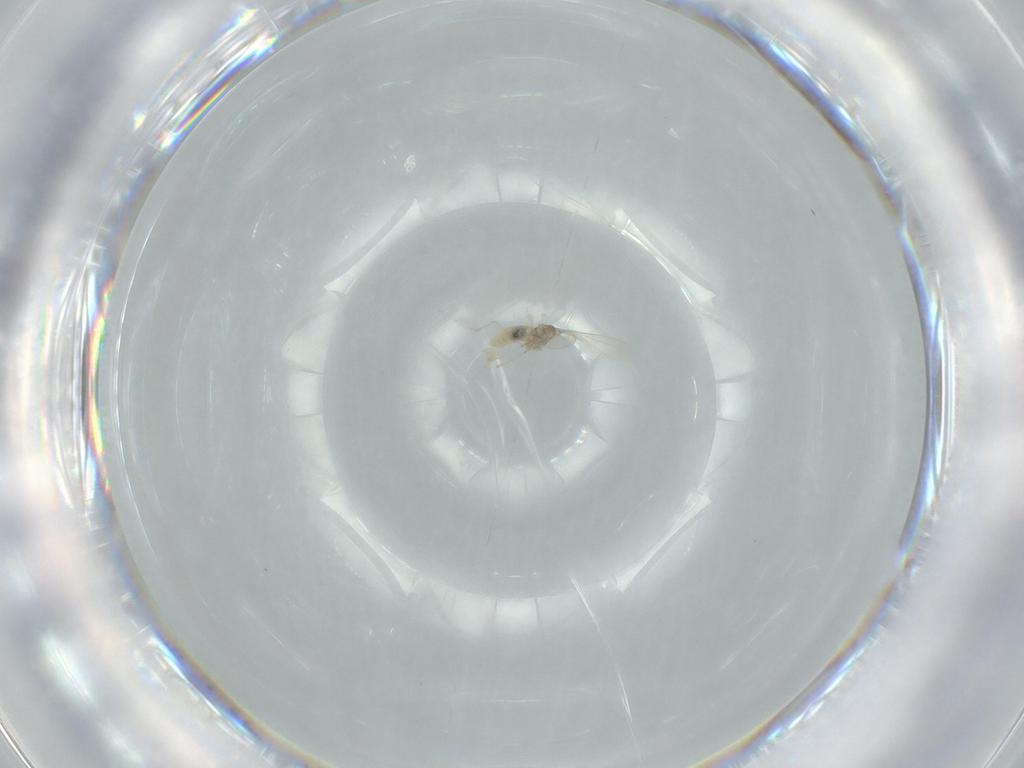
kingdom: Animalia
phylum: Arthropoda
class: Insecta
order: Diptera
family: Cecidomyiidae
